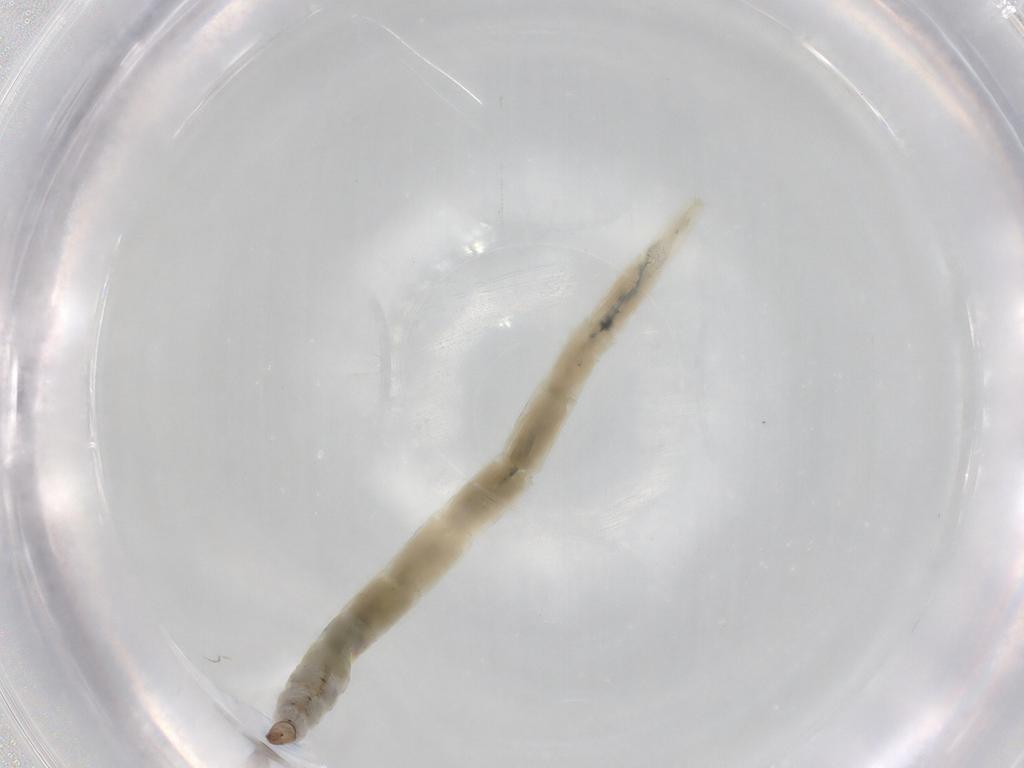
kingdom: Animalia
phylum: Arthropoda
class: Insecta
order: Diptera
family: Ceratopogonidae
